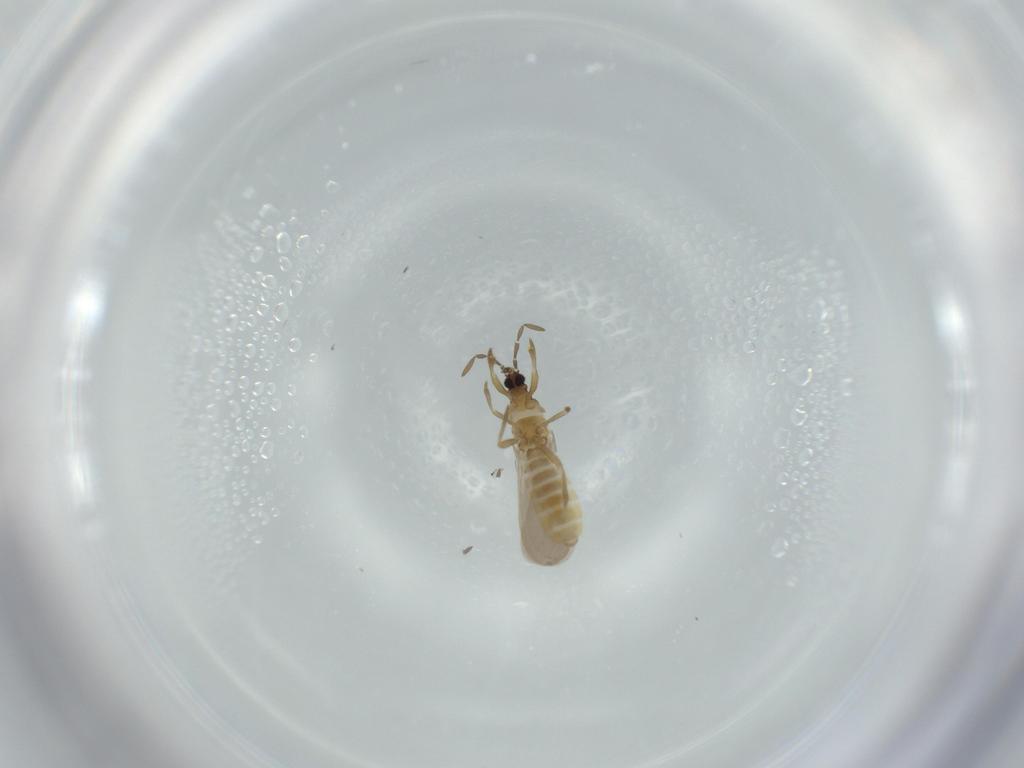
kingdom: Animalia
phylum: Arthropoda
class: Insecta
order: Hemiptera
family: Enicocephalidae
